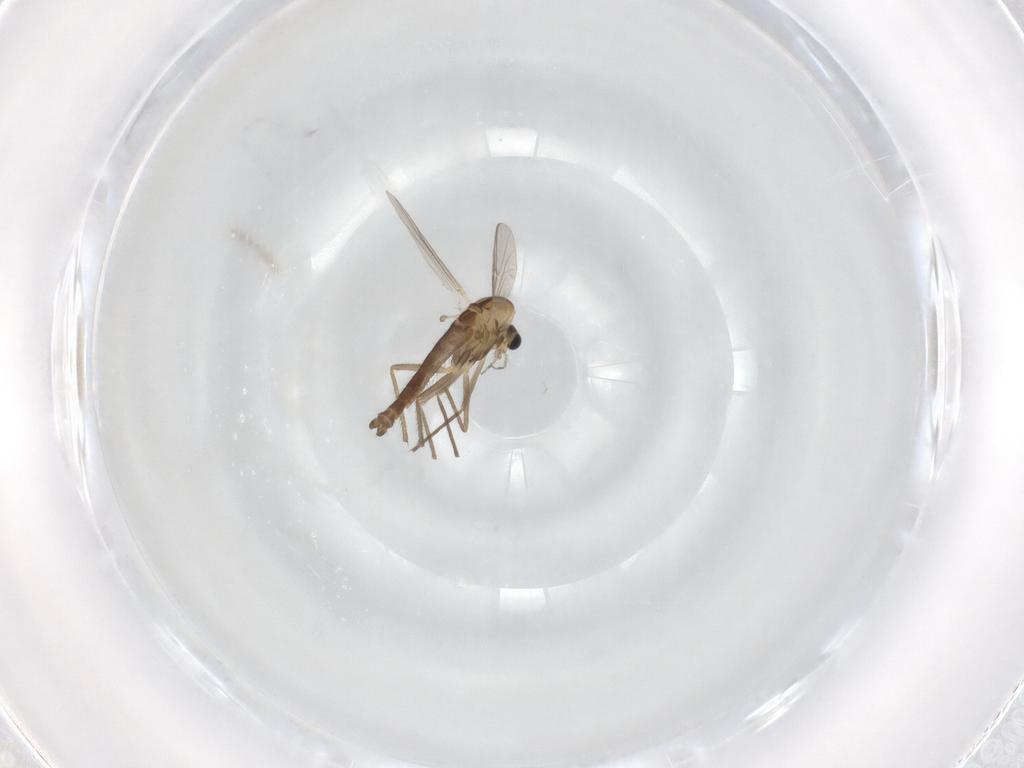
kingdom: Animalia
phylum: Arthropoda
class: Insecta
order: Diptera
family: Chironomidae
